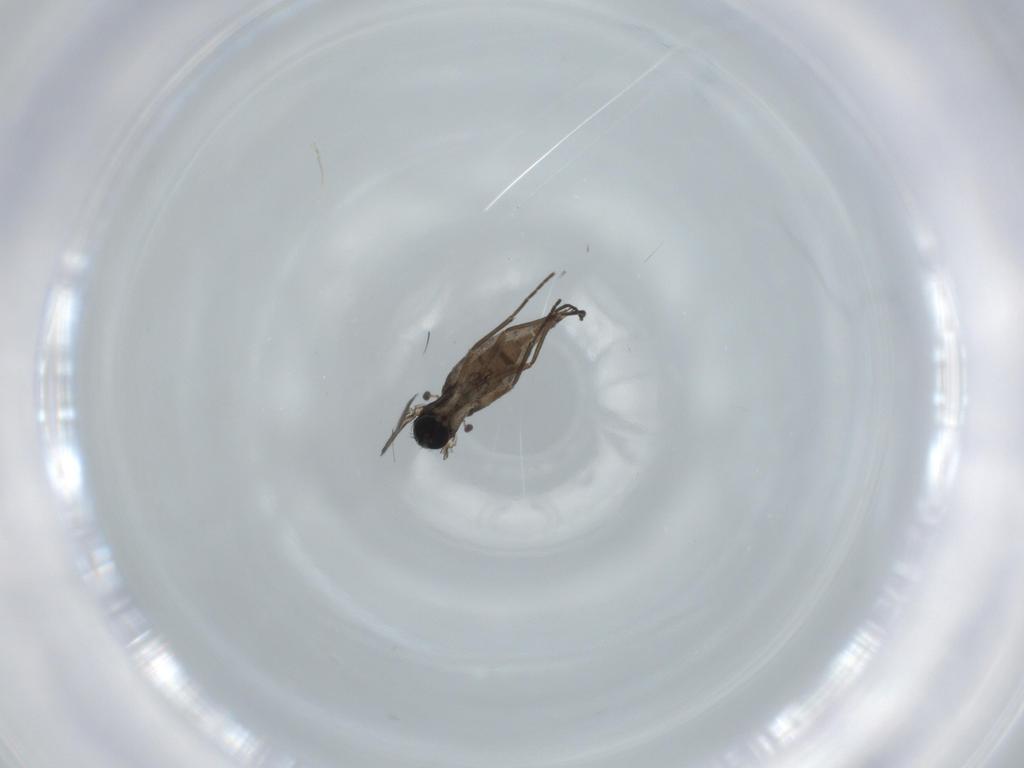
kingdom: Animalia
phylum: Arthropoda
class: Insecta
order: Diptera
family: Sciaridae
